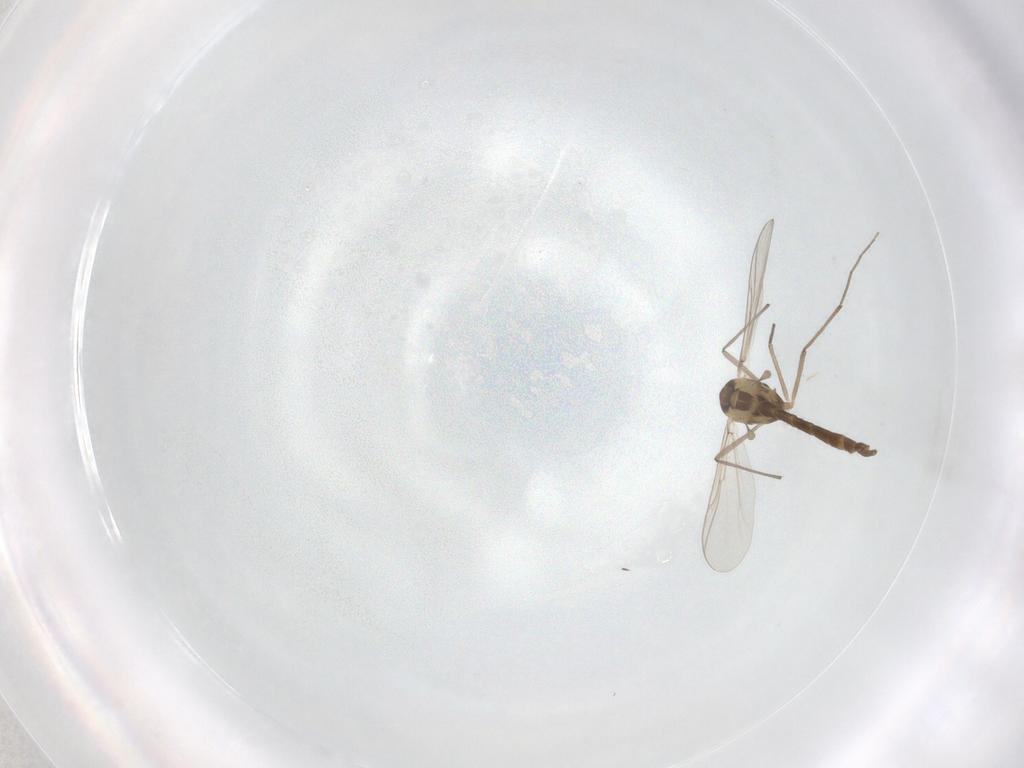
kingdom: Animalia
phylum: Arthropoda
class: Insecta
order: Diptera
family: Chironomidae
